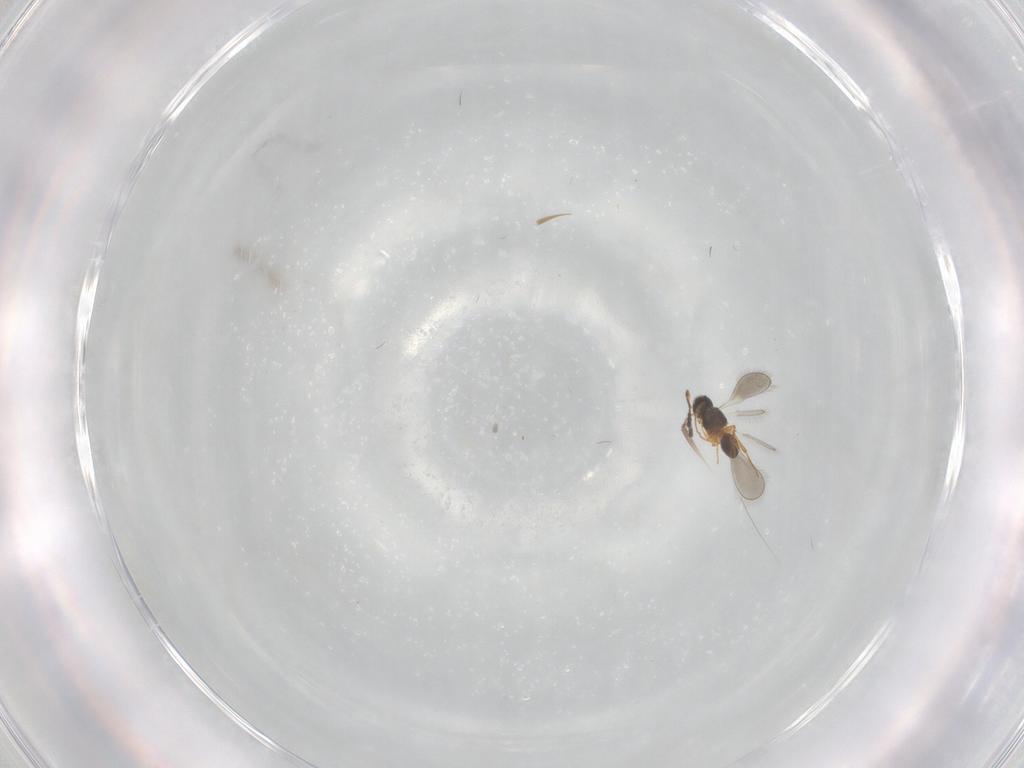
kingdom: Animalia
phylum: Arthropoda
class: Insecta
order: Hymenoptera
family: Platygastridae
